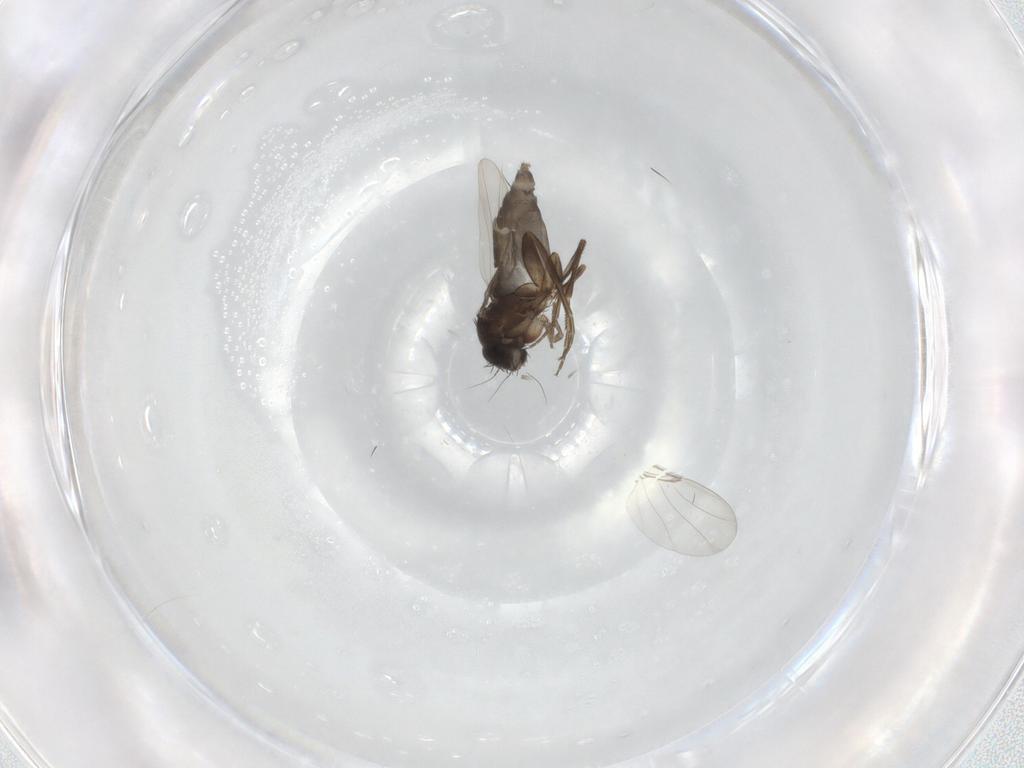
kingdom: Animalia
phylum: Arthropoda
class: Insecta
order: Diptera
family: Phoridae
